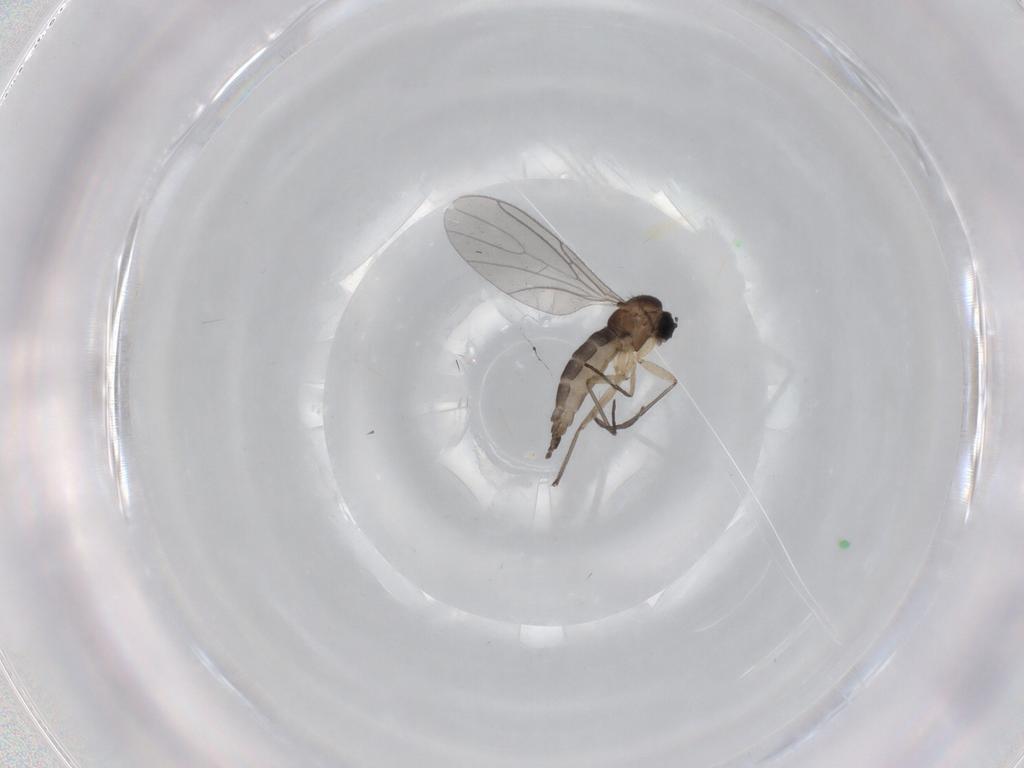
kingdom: Animalia
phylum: Arthropoda
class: Insecta
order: Diptera
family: Sciaridae
